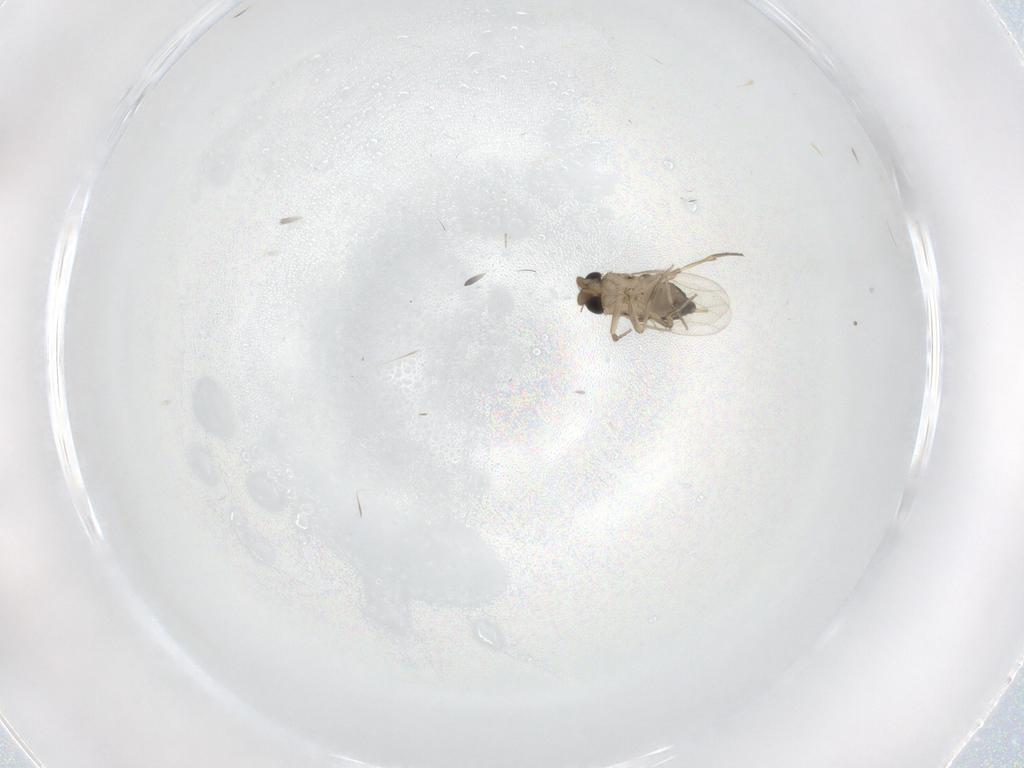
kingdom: Animalia
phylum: Arthropoda
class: Insecta
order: Diptera
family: Phoridae
